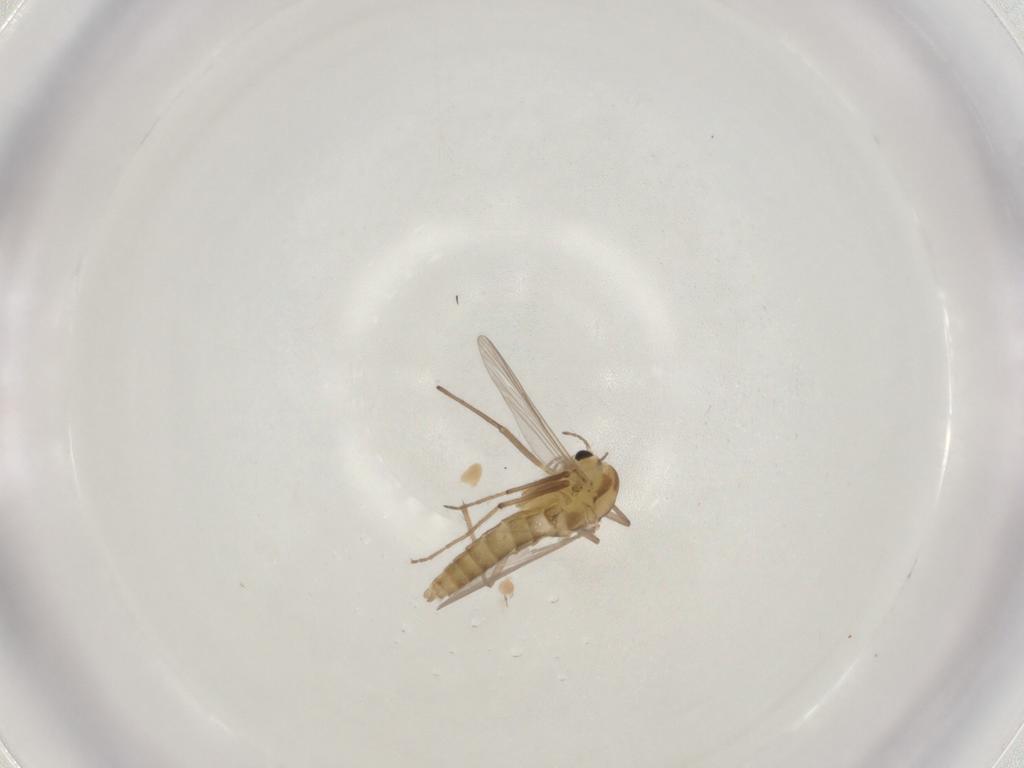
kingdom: Animalia
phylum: Arthropoda
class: Insecta
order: Diptera
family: Chironomidae
